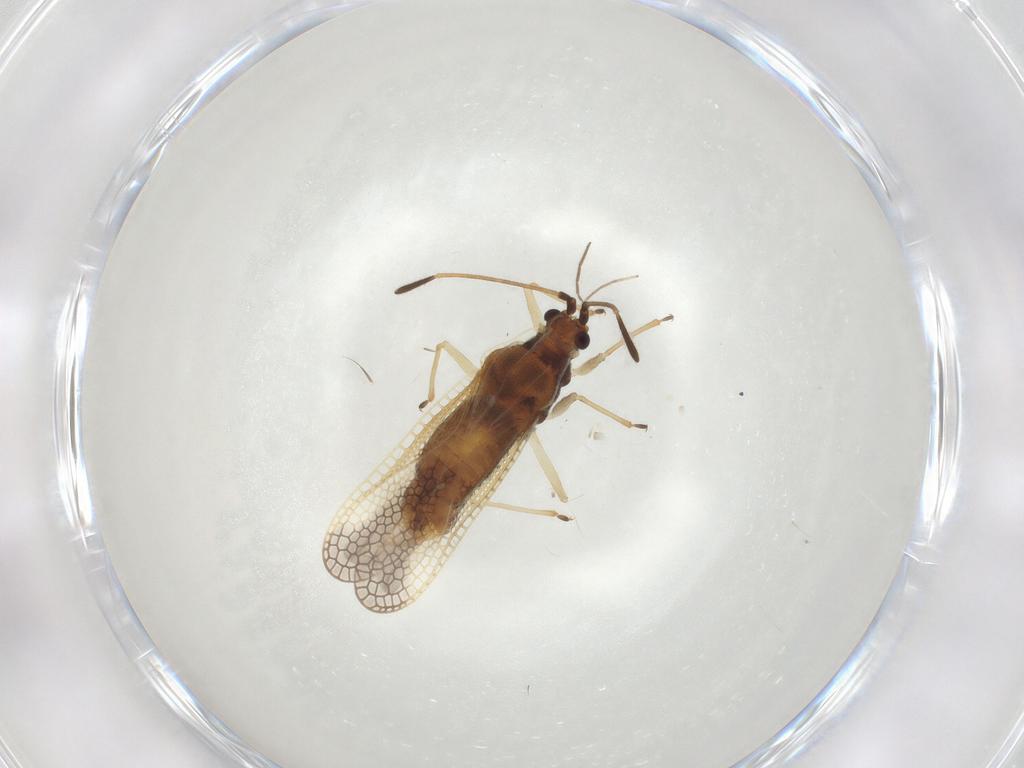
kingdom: Animalia
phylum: Arthropoda
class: Insecta
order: Hemiptera
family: Tingidae
